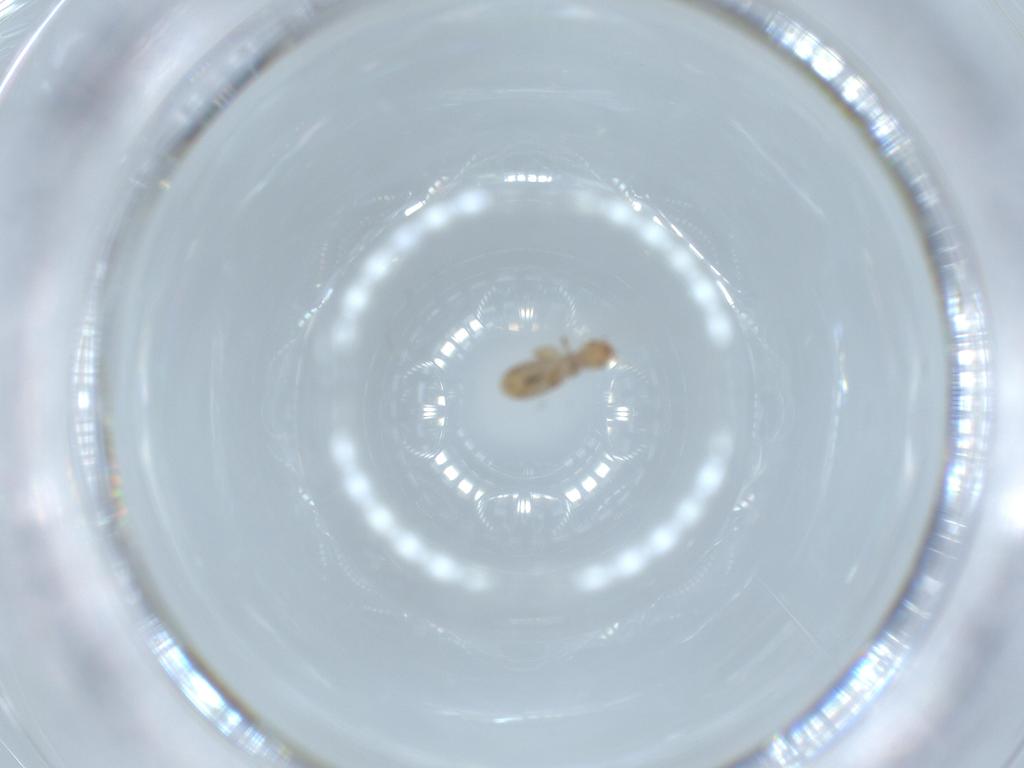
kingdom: Animalia
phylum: Arthropoda
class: Insecta
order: Psocodea
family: Liposcelididae
